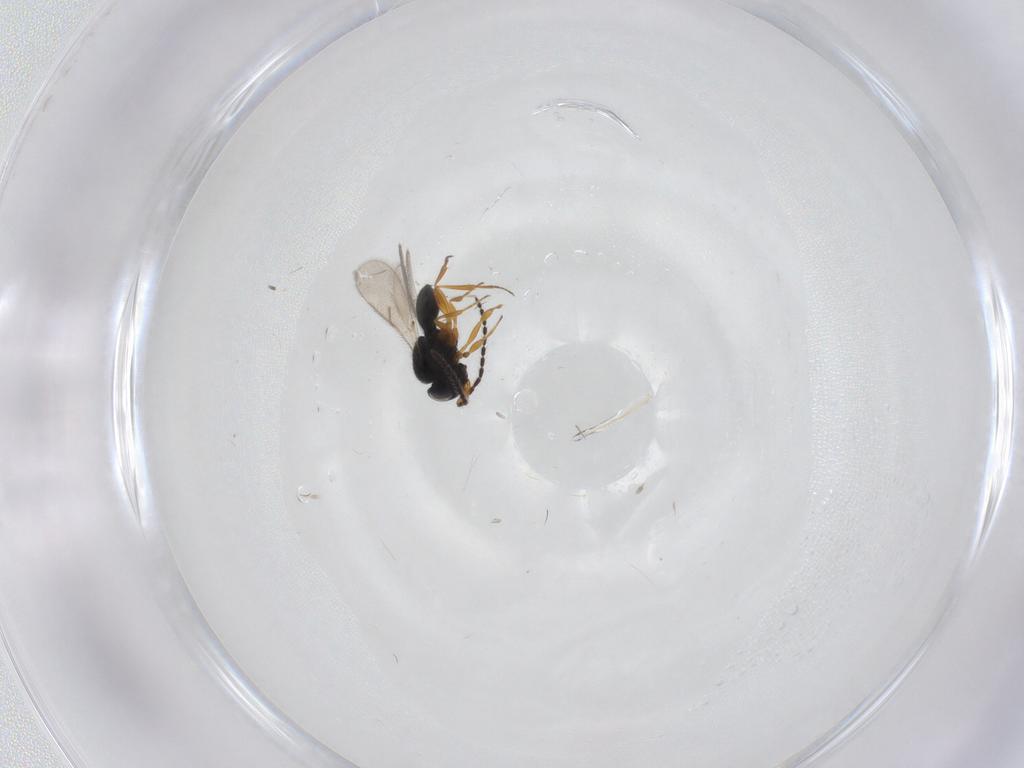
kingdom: Animalia
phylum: Arthropoda
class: Insecta
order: Hymenoptera
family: Scelionidae
